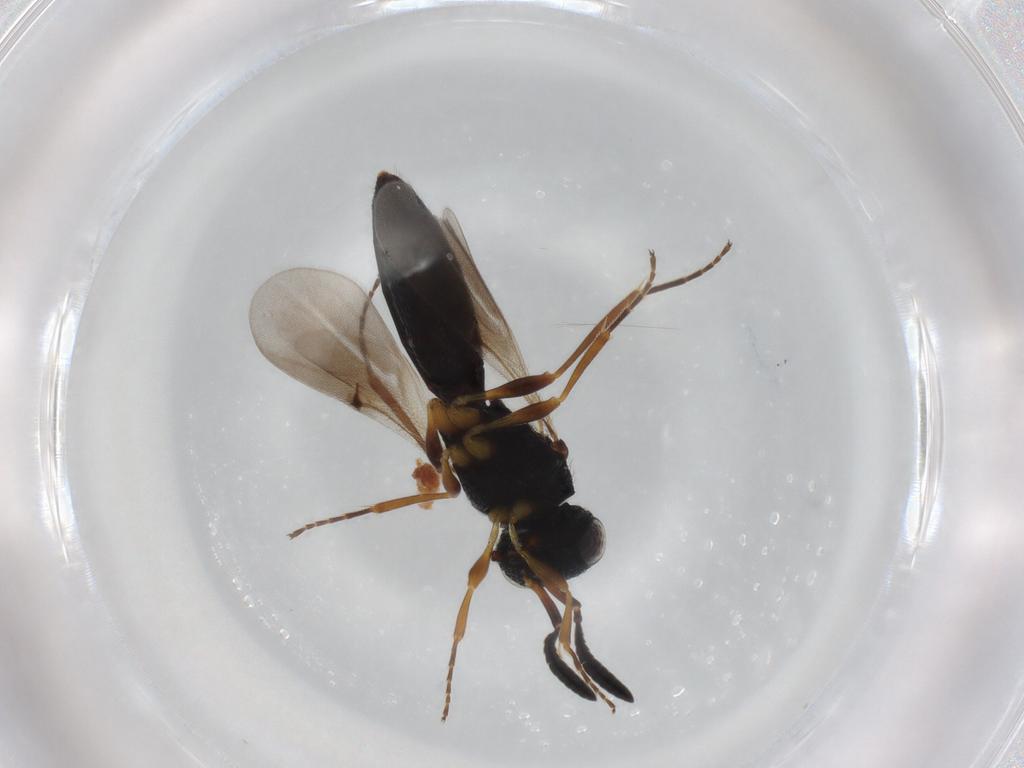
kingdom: Animalia
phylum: Arthropoda
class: Insecta
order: Hymenoptera
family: Scelionidae
